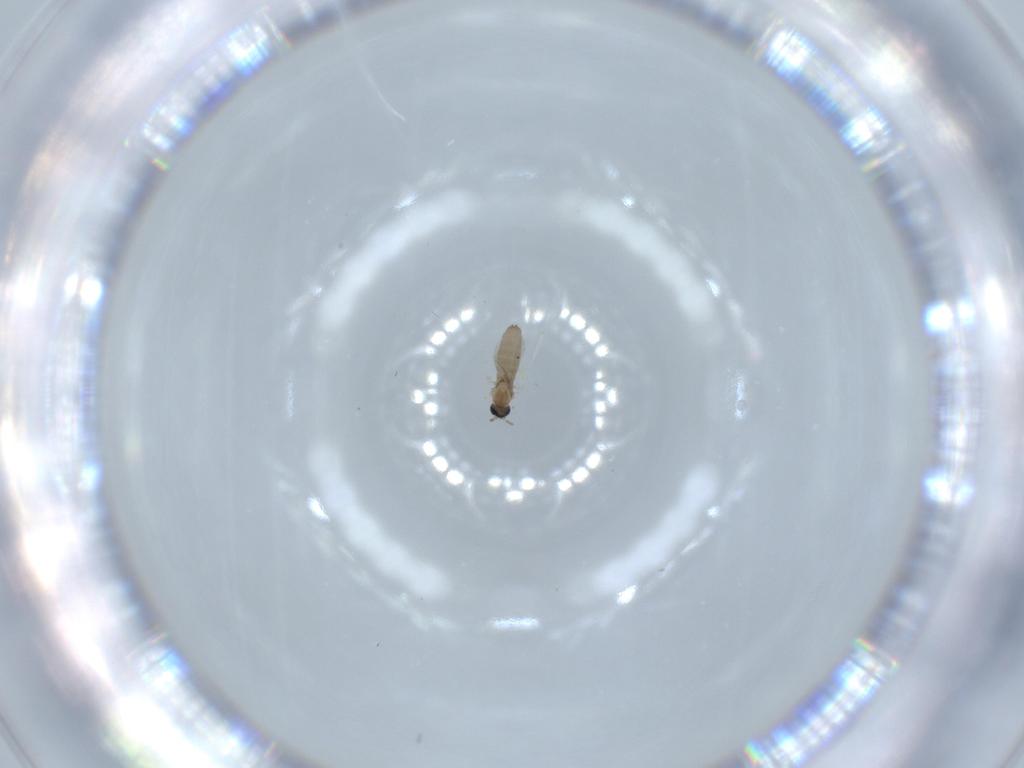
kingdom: Animalia
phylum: Arthropoda
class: Insecta
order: Diptera
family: Cecidomyiidae
